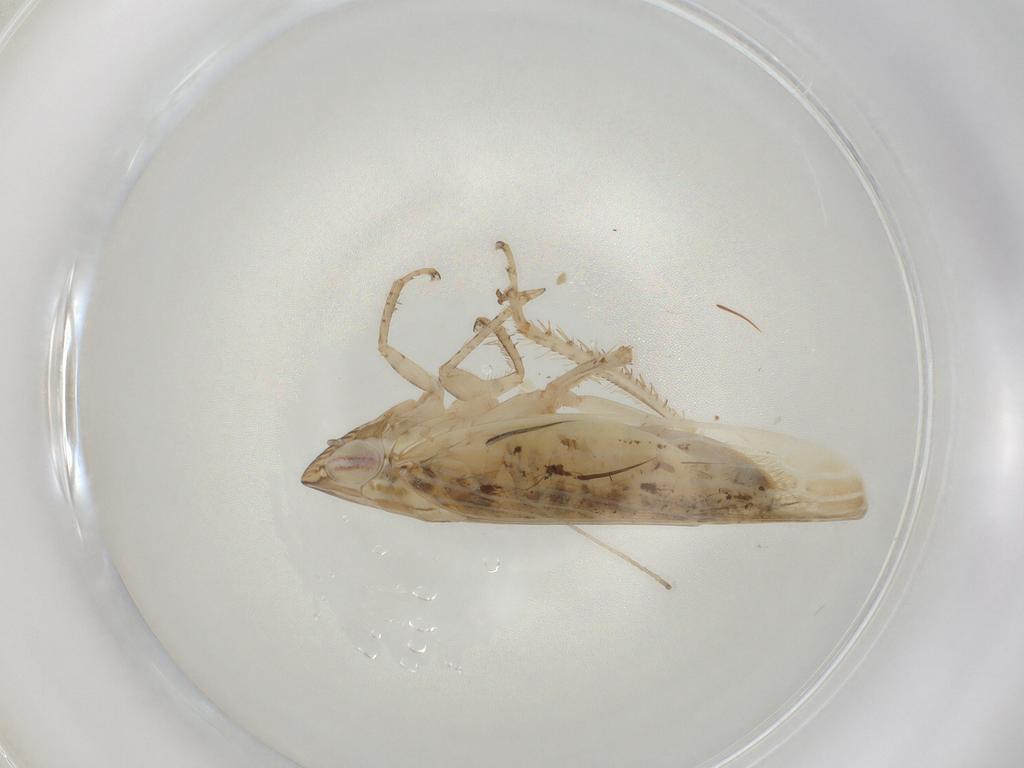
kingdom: Animalia
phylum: Arthropoda
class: Insecta
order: Hemiptera
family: Cicadellidae
